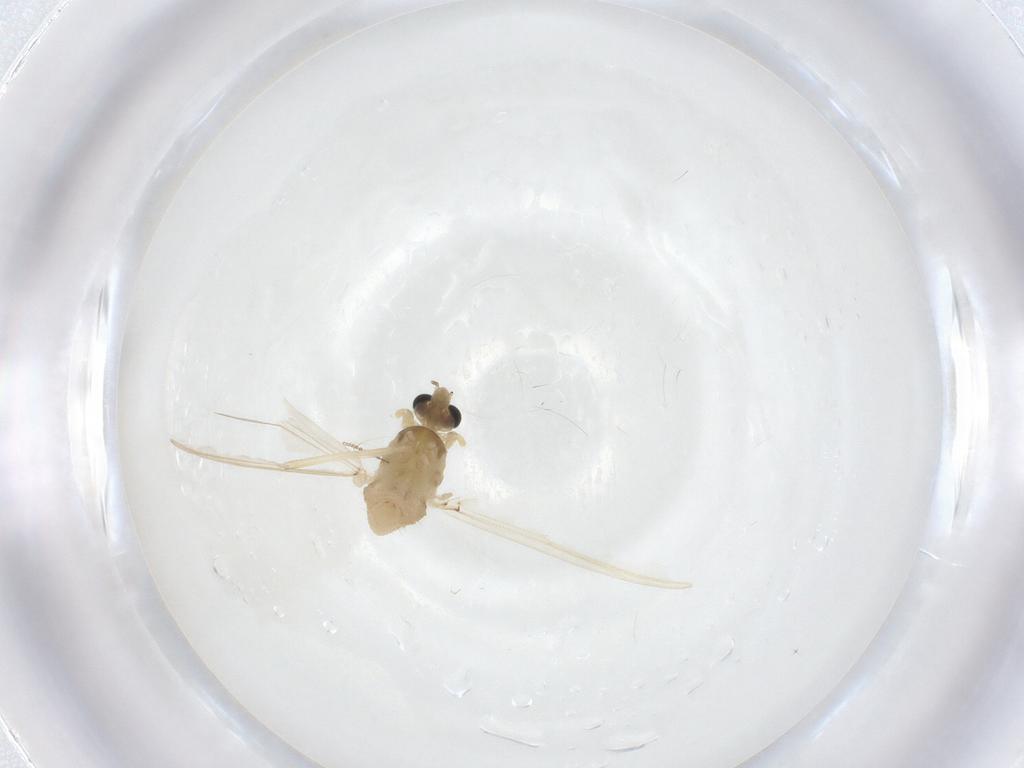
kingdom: Animalia
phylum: Arthropoda
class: Insecta
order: Diptera
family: Chironomidae
